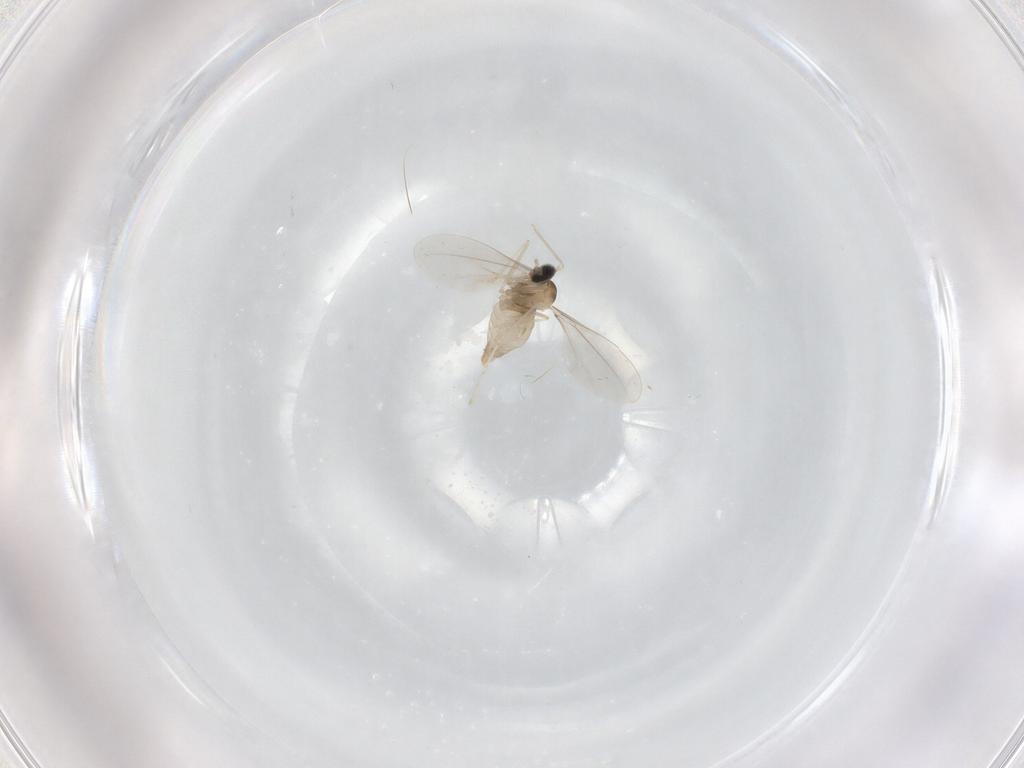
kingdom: Animalia
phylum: Arthropoda
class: Insecta
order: Diptera
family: Cecidomyiidae
